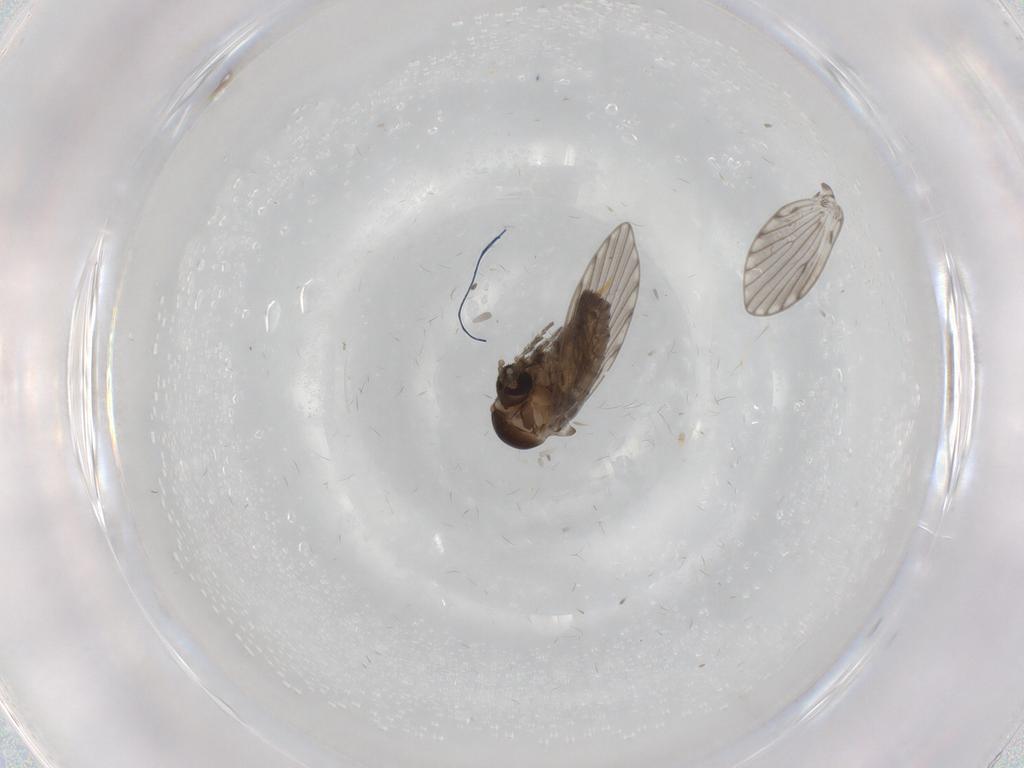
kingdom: Animalia
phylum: Arthropoda
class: Insecta
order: Diptera
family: Psychodidae
